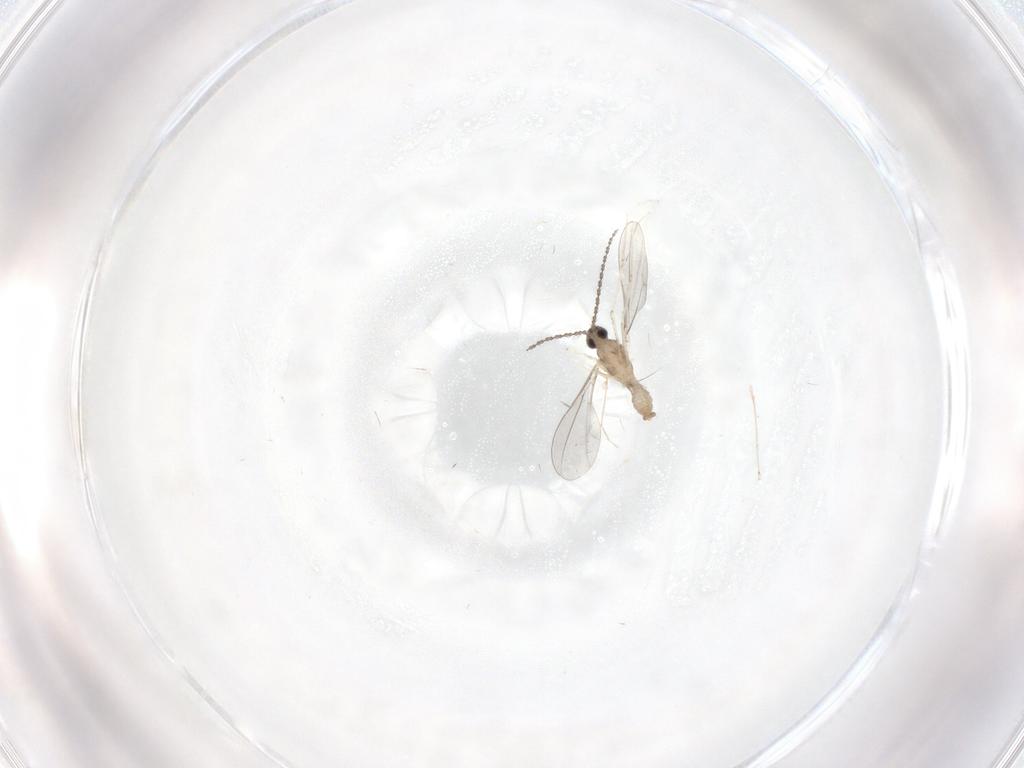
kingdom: Animalia
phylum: Arthropoda
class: Insecta
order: Diptera
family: Cecidomyiidae
